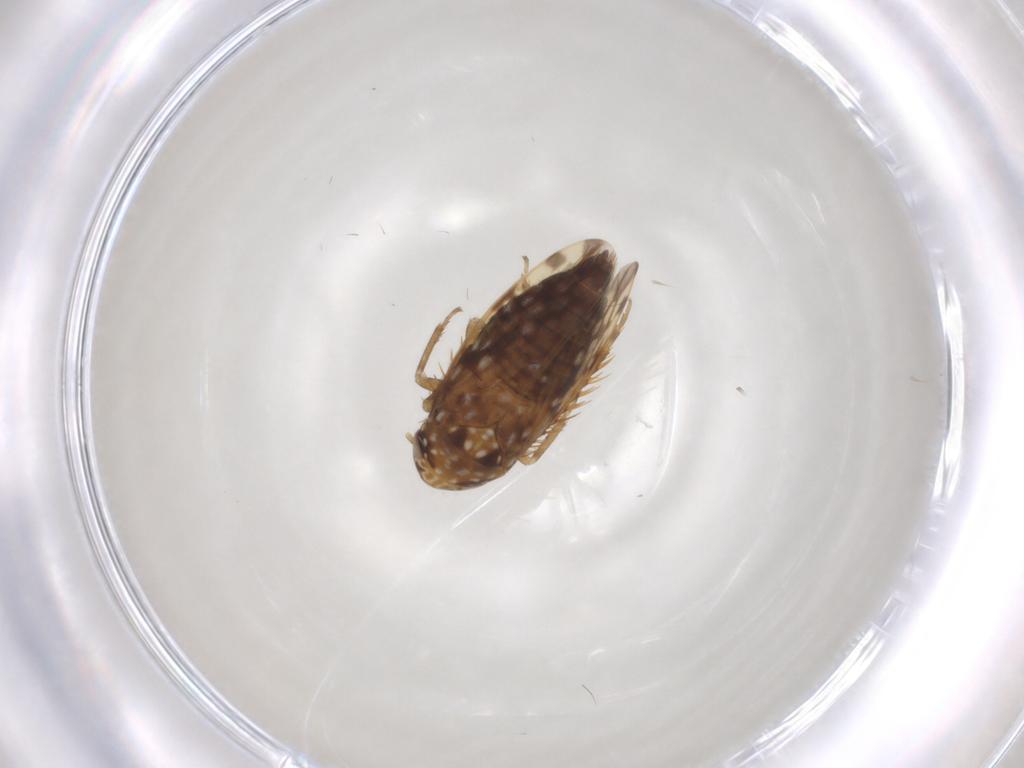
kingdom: Animalia
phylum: Arthropoda
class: Insecta
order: Hemiptera
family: Cicadellidae
